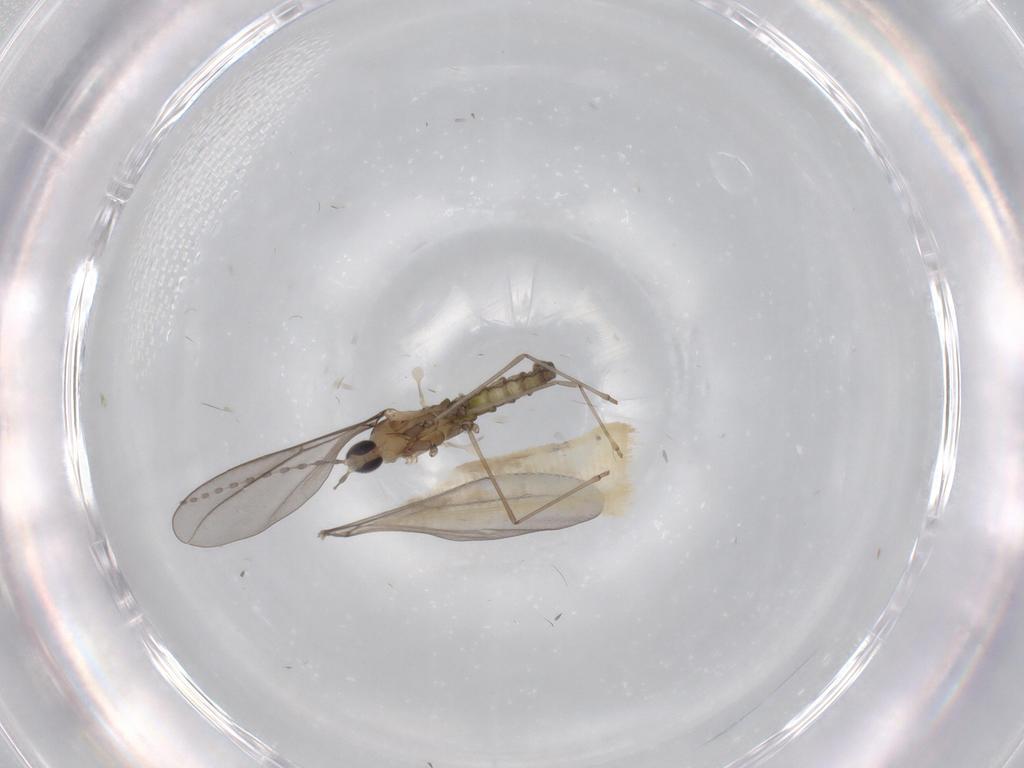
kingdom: Animalia
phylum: Arthropoda
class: Insecta
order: Diptera
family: Cecidomyiidae
